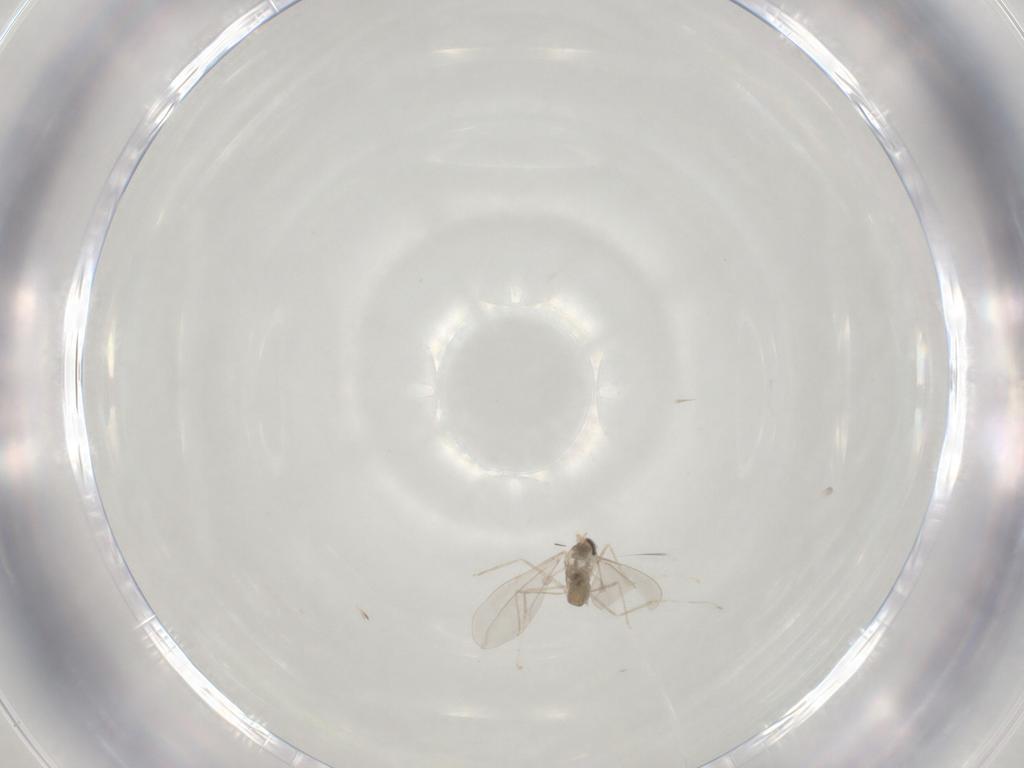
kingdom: Animalia
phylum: Arthropoda
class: Insecta
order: Diptera
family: Cecidomyiidae
